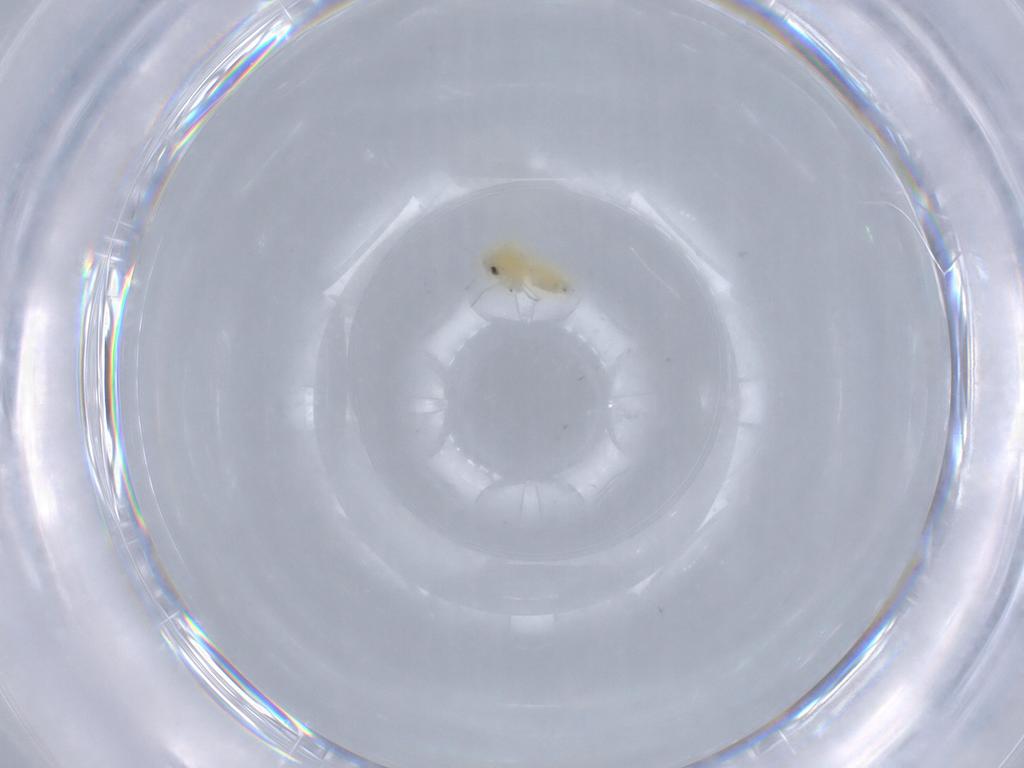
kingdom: Animalia
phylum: Arthropoda
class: Insecta
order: Hemiptera
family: Aleyrodidae
